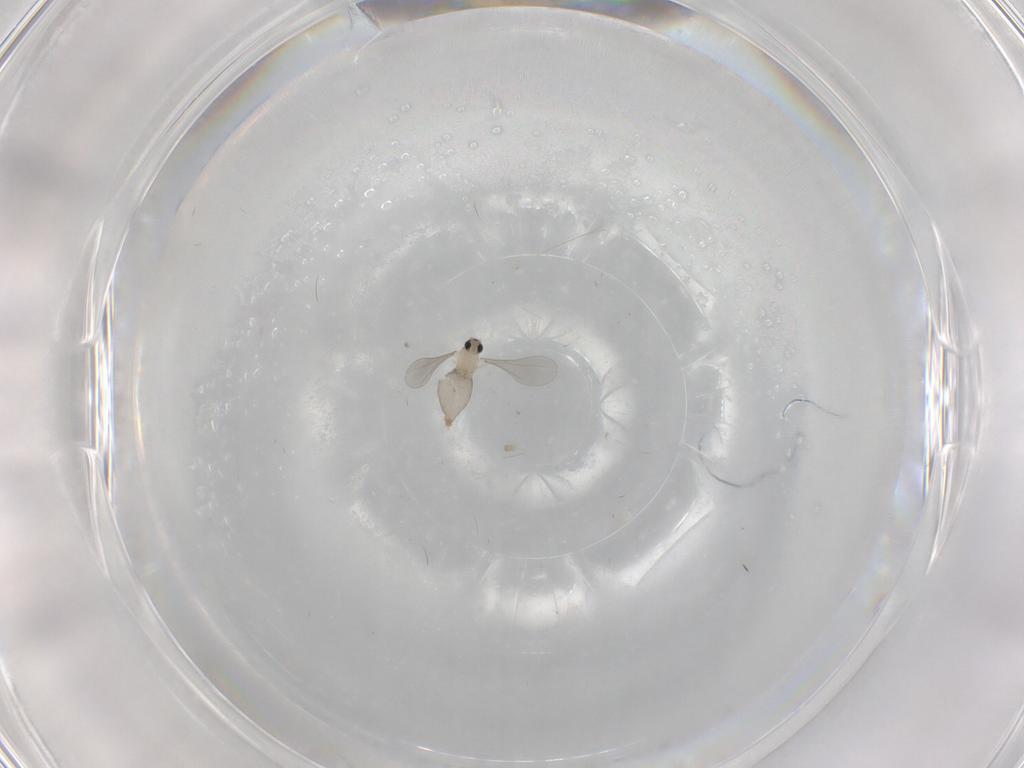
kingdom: Animalia
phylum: Arthropoda
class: Insecta
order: Diptera
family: Cecidomyiidae
